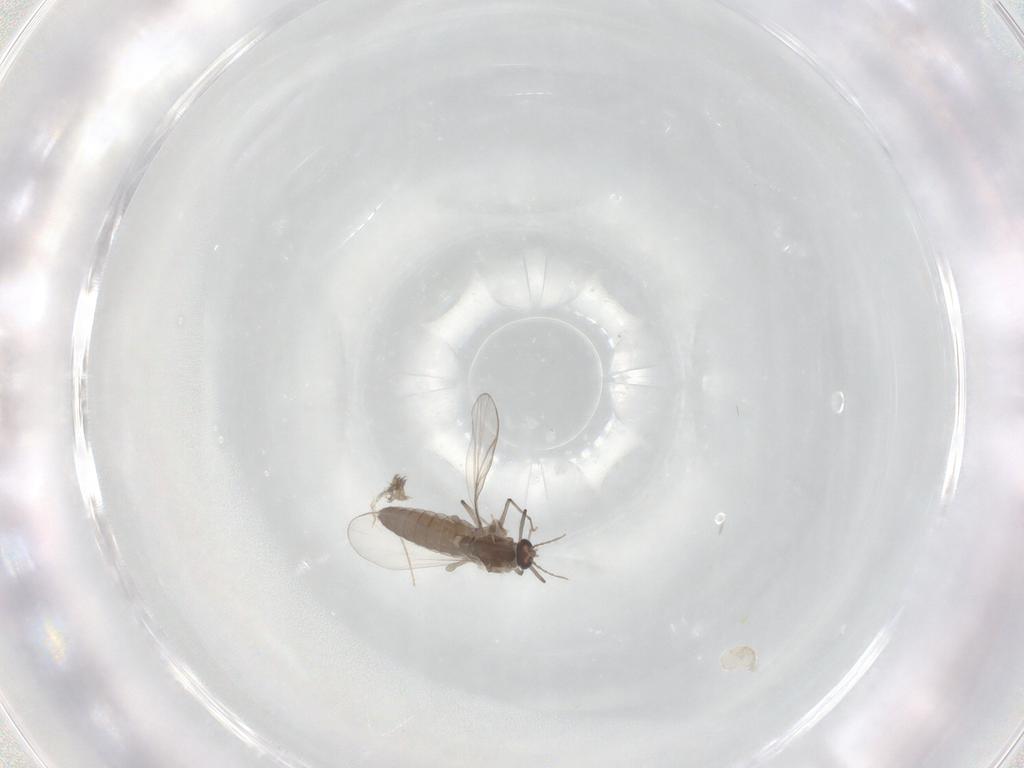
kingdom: Animalia
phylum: Arthropoda
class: Insecta
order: Diptera
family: Chironomidae
